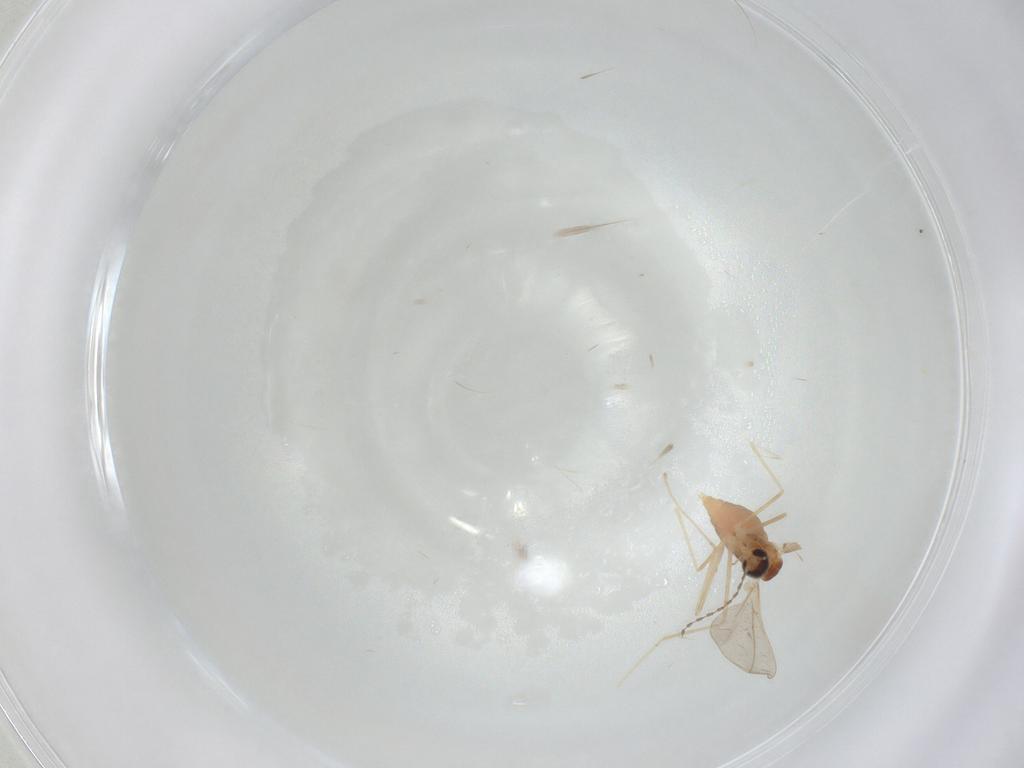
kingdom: Animalia
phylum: Arthropoda
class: Insecta
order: Diptera
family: Cecidomyiidae
